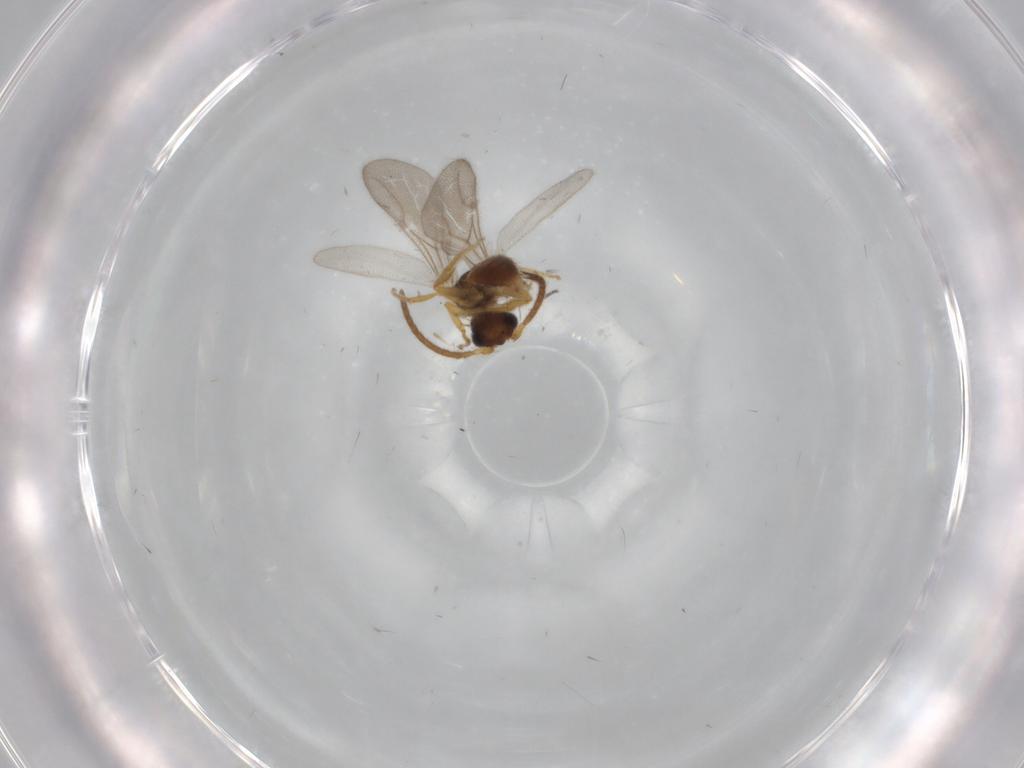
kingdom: Animalia
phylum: Arthropoda
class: Insecta
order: Hymenoptera
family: Bethylidae
